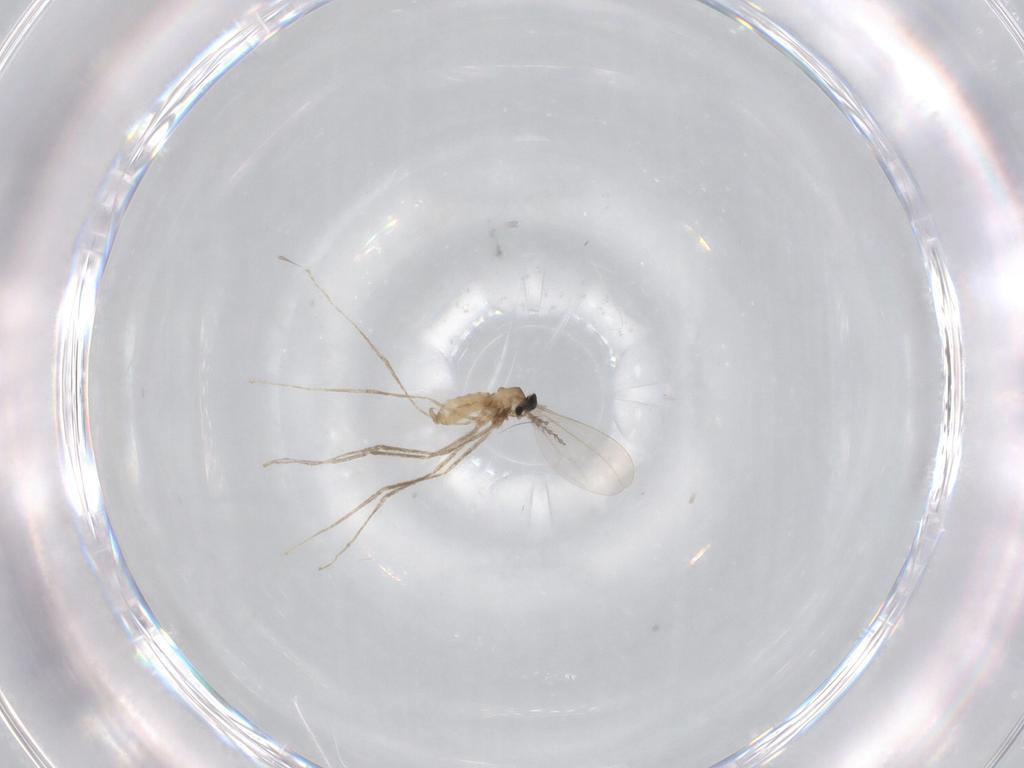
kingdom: Animalia
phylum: Arthropoda
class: Insecta
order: Diptera
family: Cecidomyiidae
